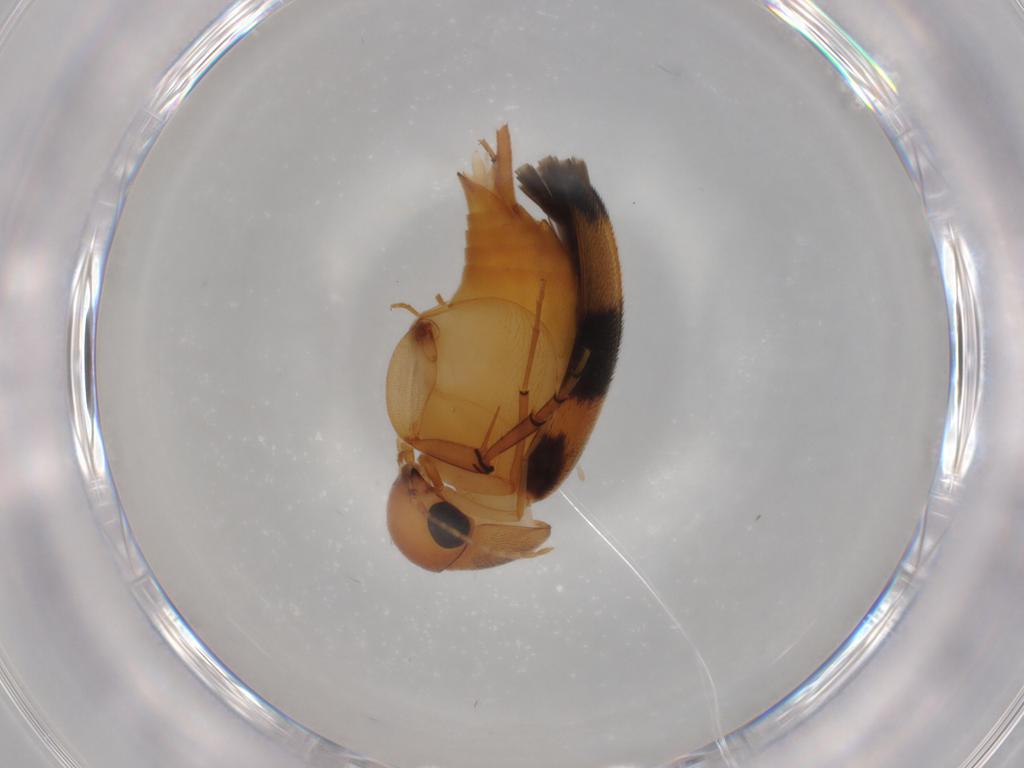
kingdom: Animalia
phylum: Arthropoda
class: Insecta
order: Coleoptera
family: Mordellidae
